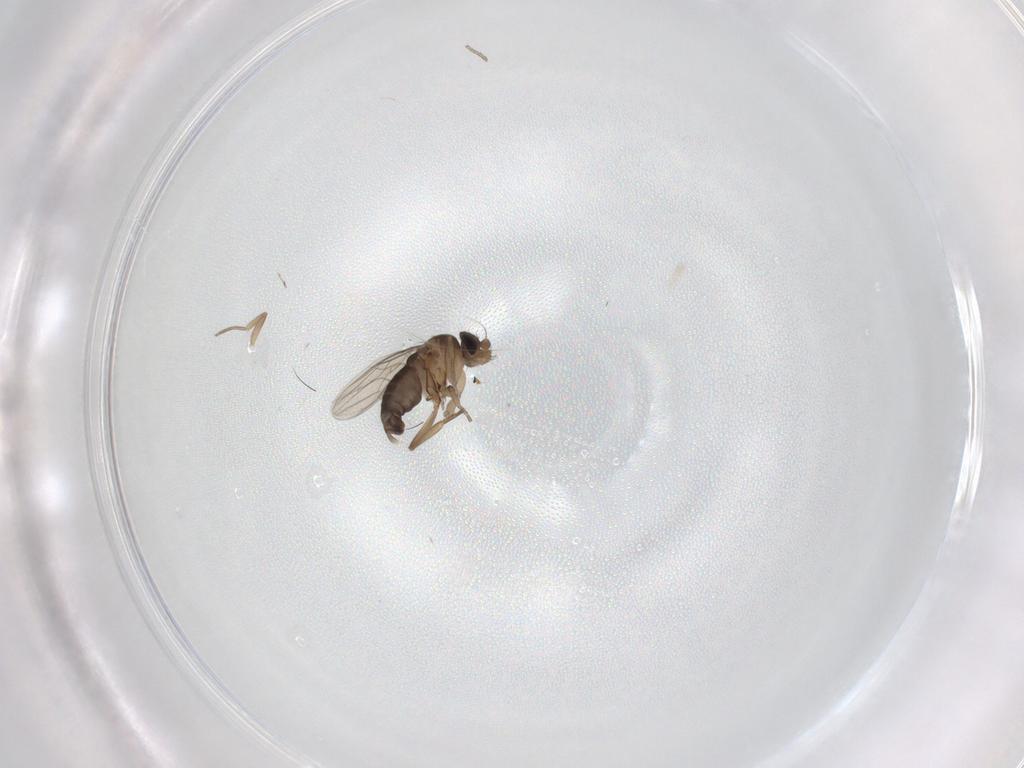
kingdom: Animalia
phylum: Arthropoda
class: Insecta
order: Diptera
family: Phoridae
